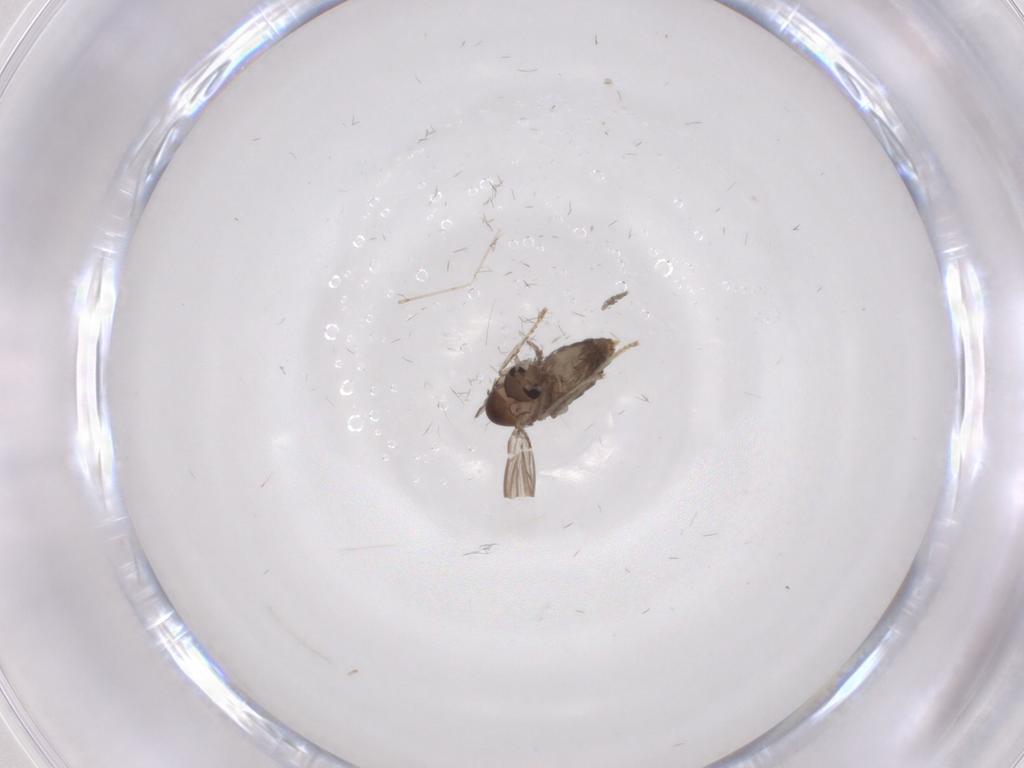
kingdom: Animalia
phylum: Arthropoda
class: Insecta
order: Diptera
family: Psychodidae
